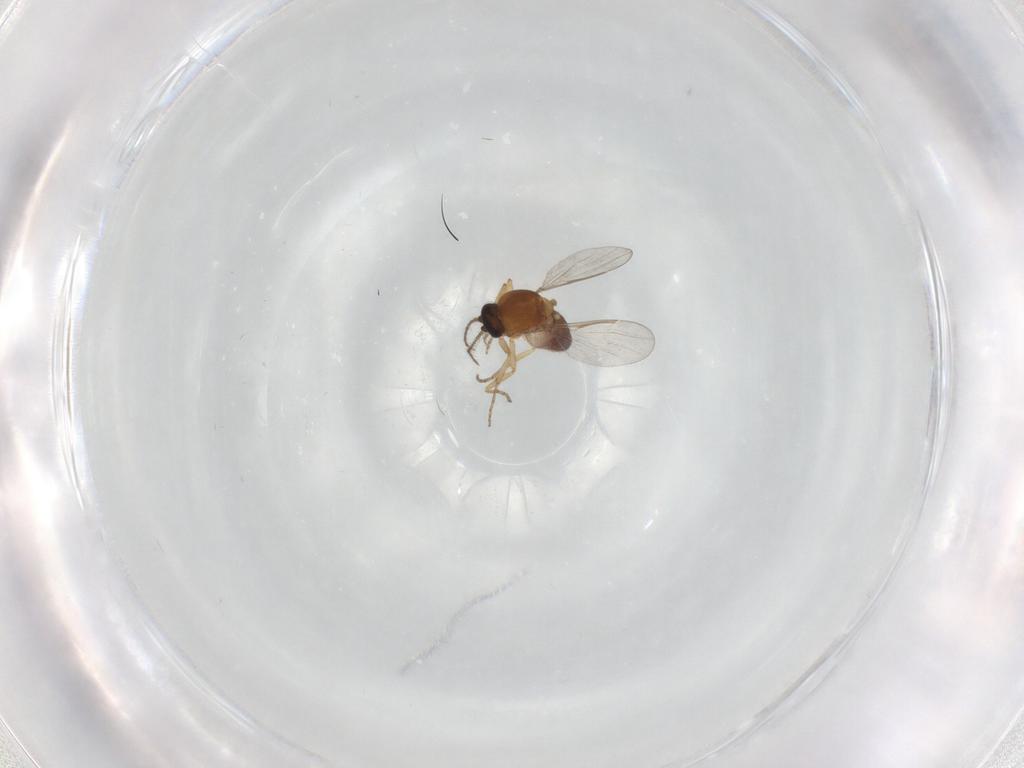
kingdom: Animalia
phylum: Arthropoda
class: Insecta
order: Diptera
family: Ceratopogonidae
